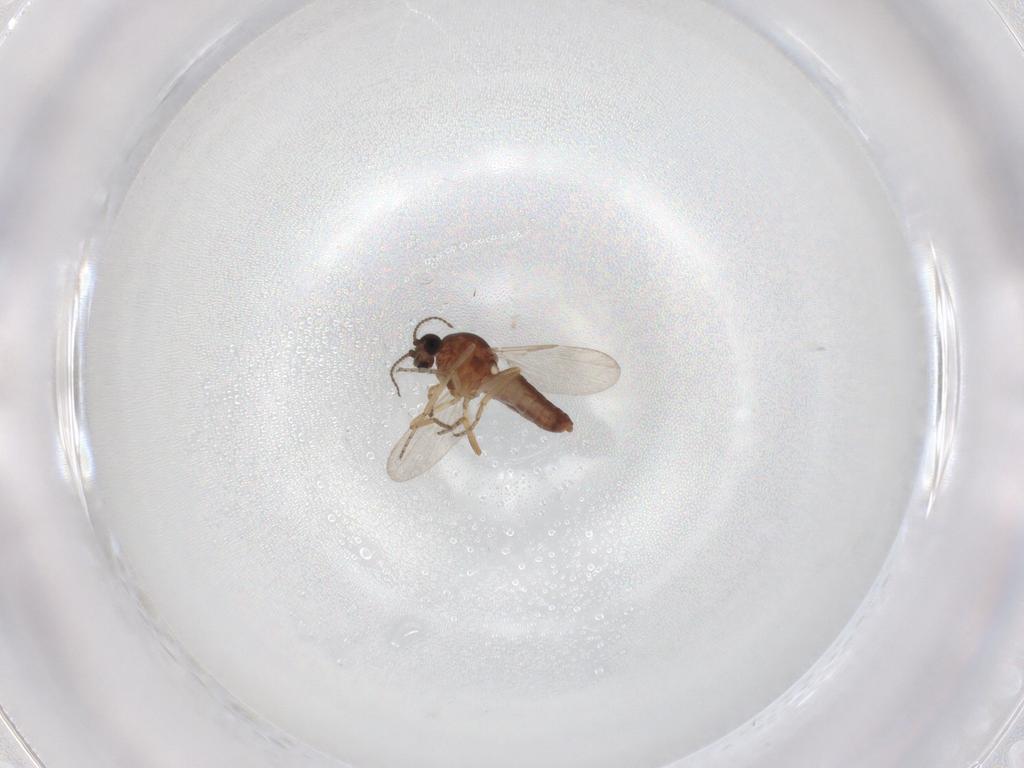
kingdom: Animalia
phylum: Arthropoda
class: Insecta
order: Diptera
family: Ceratopogonidae
